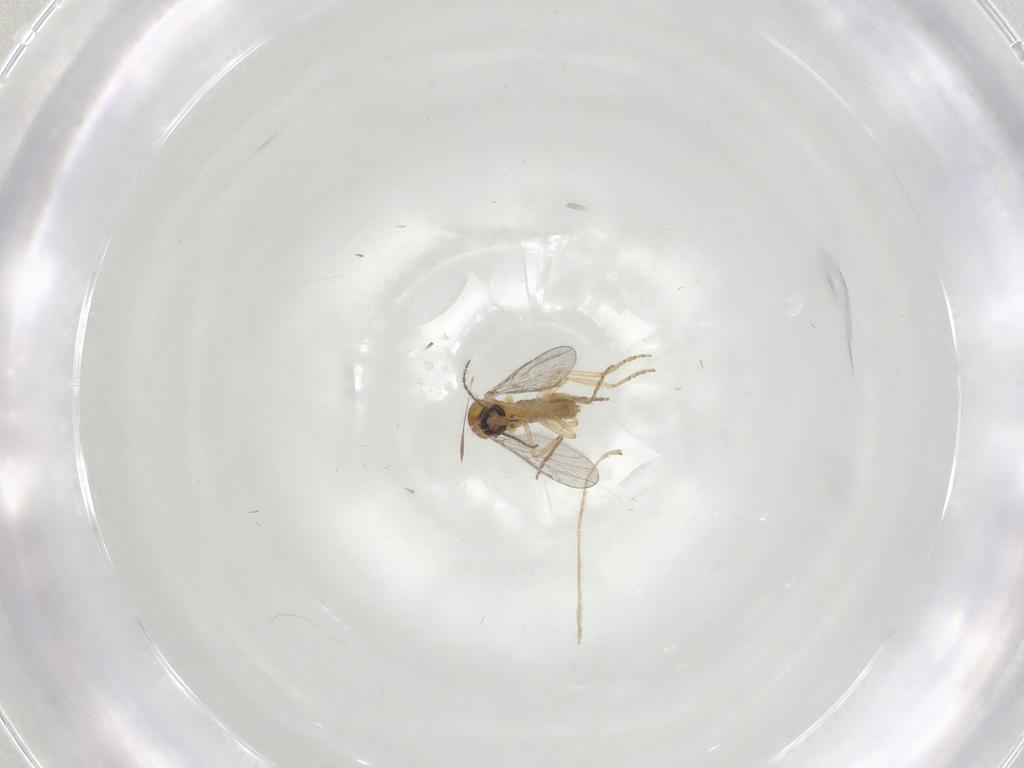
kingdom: Animalia
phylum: Arthropoda
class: Insecta
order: Diptera
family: Ceratopogonidae
